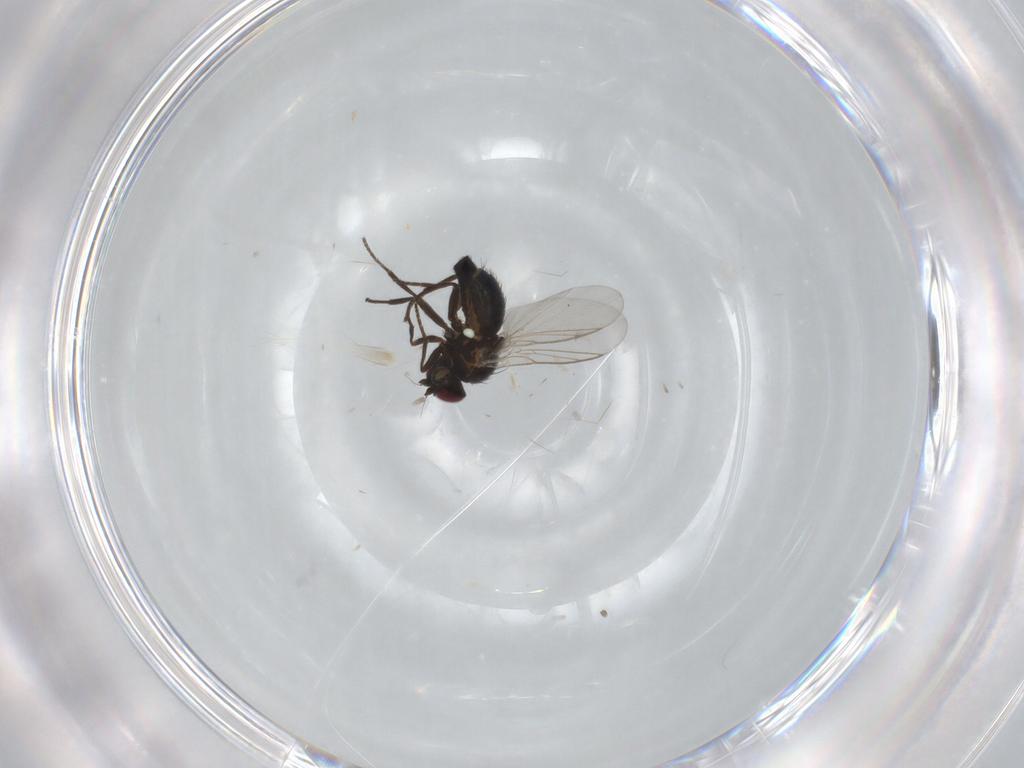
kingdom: Animalia
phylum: Arthropoda
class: Insecta
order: Diptera
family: Agromyzidae
